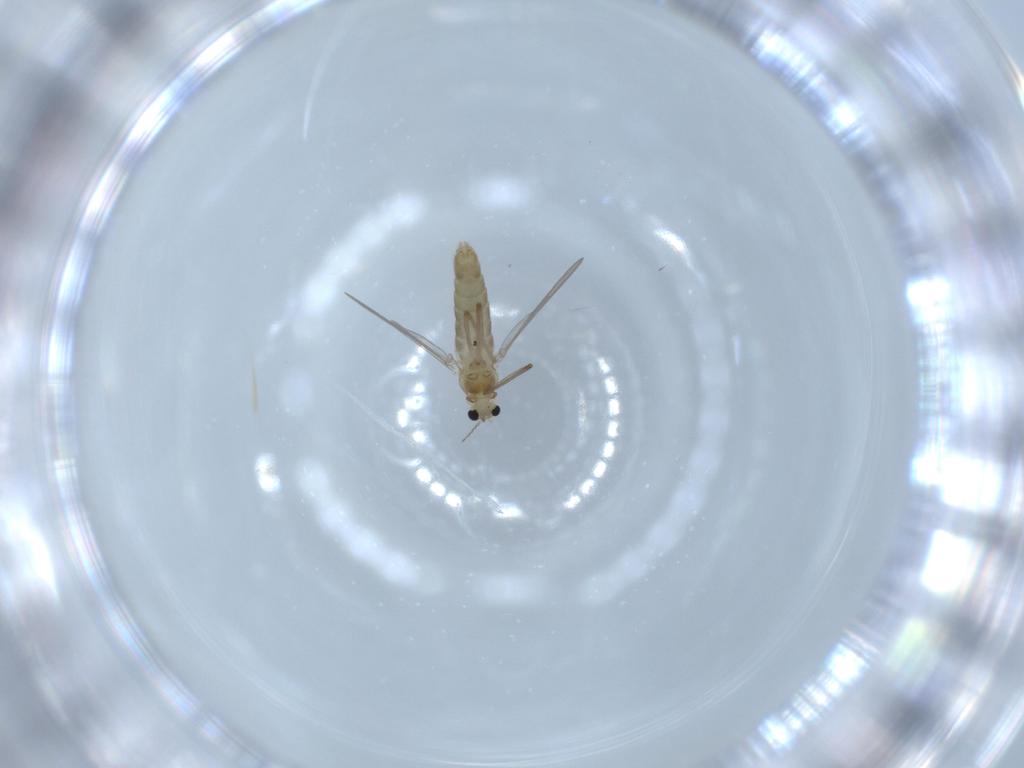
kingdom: Animalia
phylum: Arthropoda
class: Insecta
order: Diptera
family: Chironomidae
